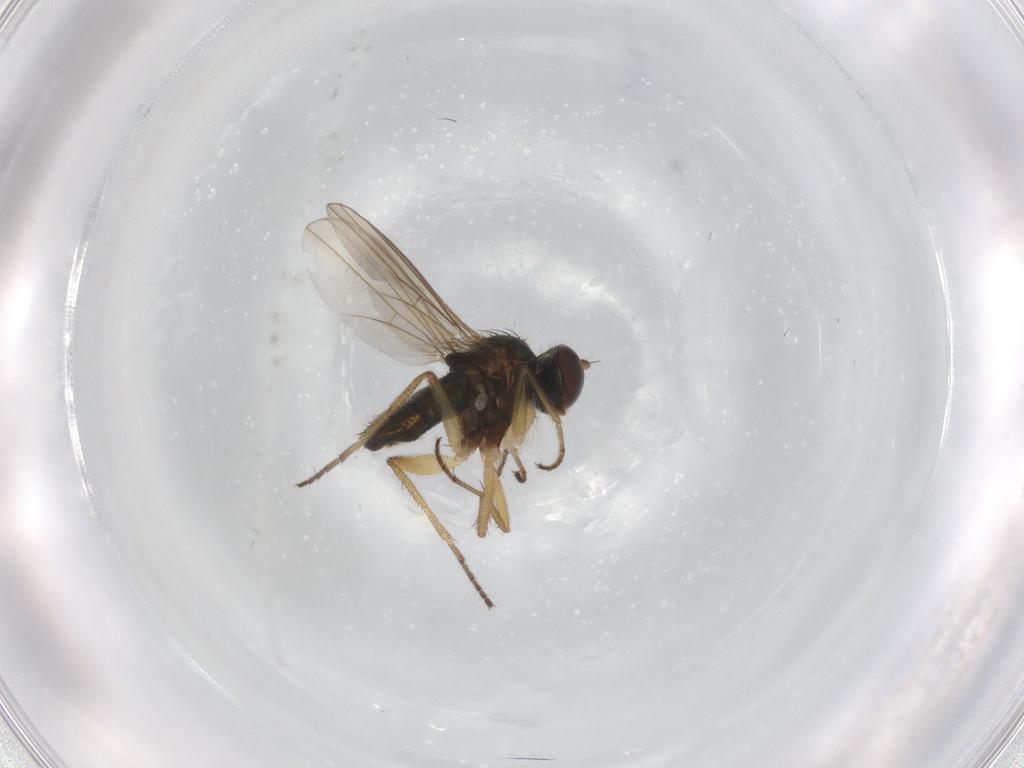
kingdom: Animalia
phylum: Arthropoda
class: Insecta
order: Diptera
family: Dolichopodidae
